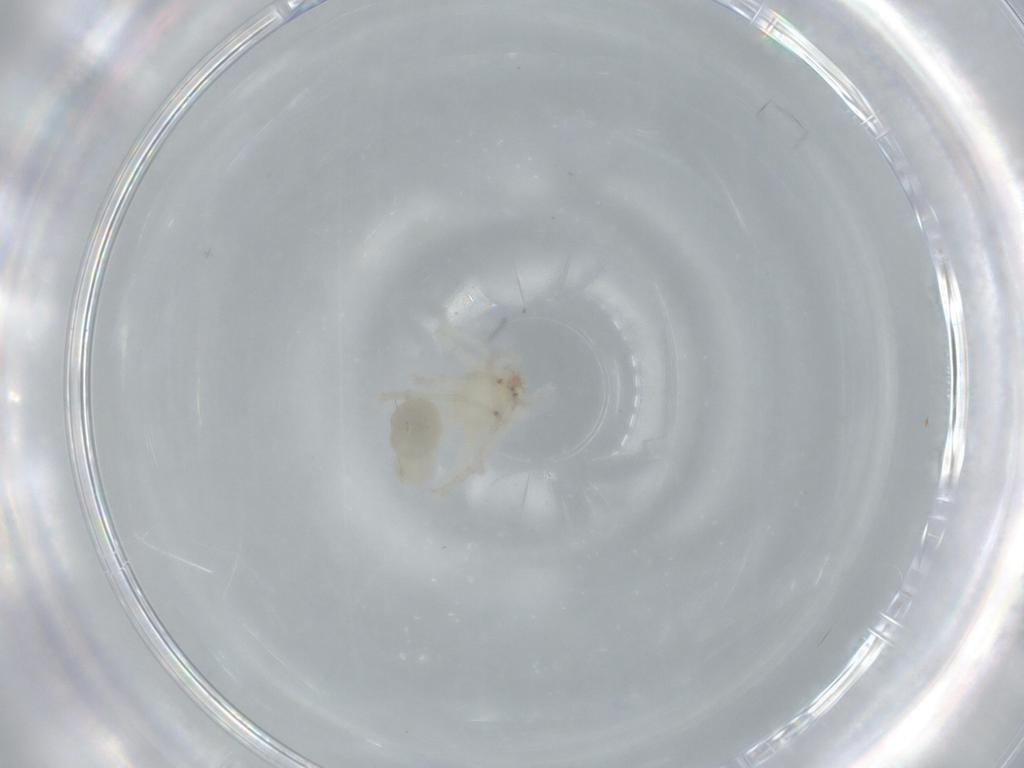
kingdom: Animalia
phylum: Arthropoda
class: Arachnida
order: Araneae
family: Anyphaenidae
